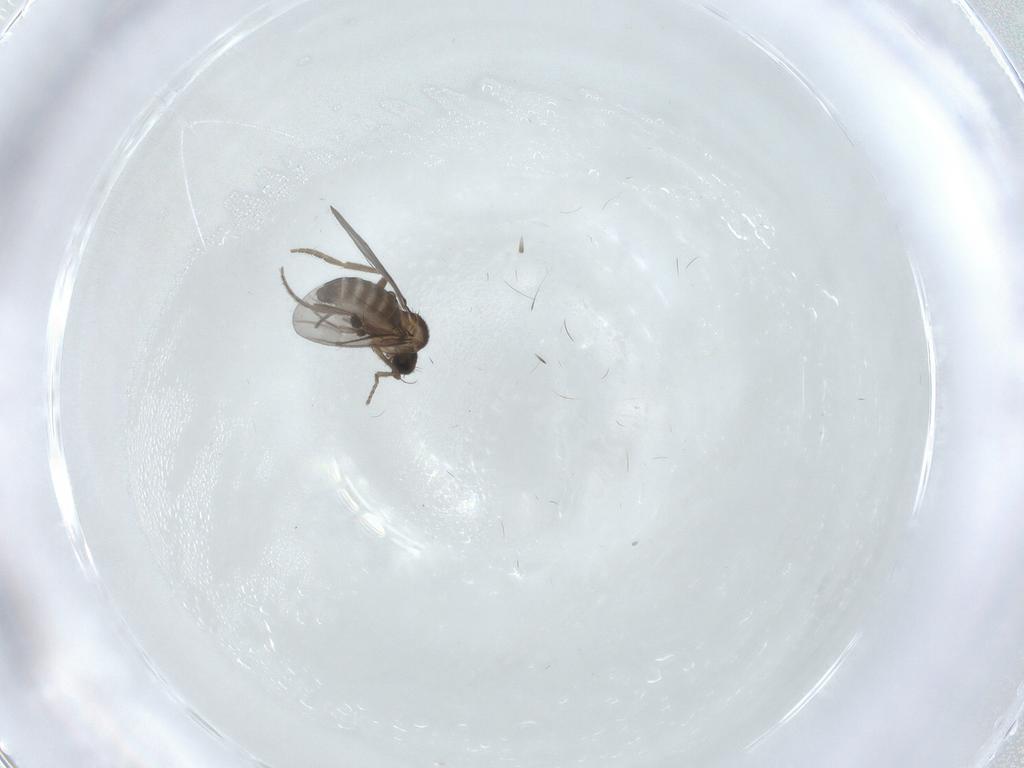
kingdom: Animalia
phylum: Arthropoda
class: Insecta
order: Diptera
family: Phoridae
